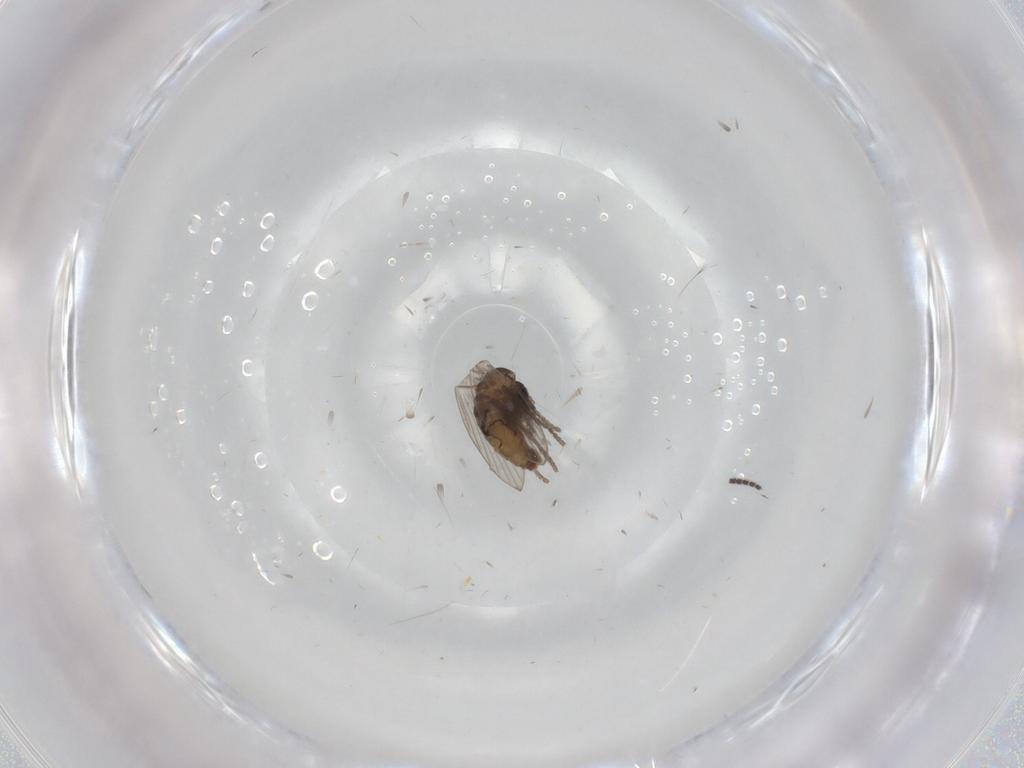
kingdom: Animalia
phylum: Arthropoda
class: Insecta
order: Diptera
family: Psychodidae
